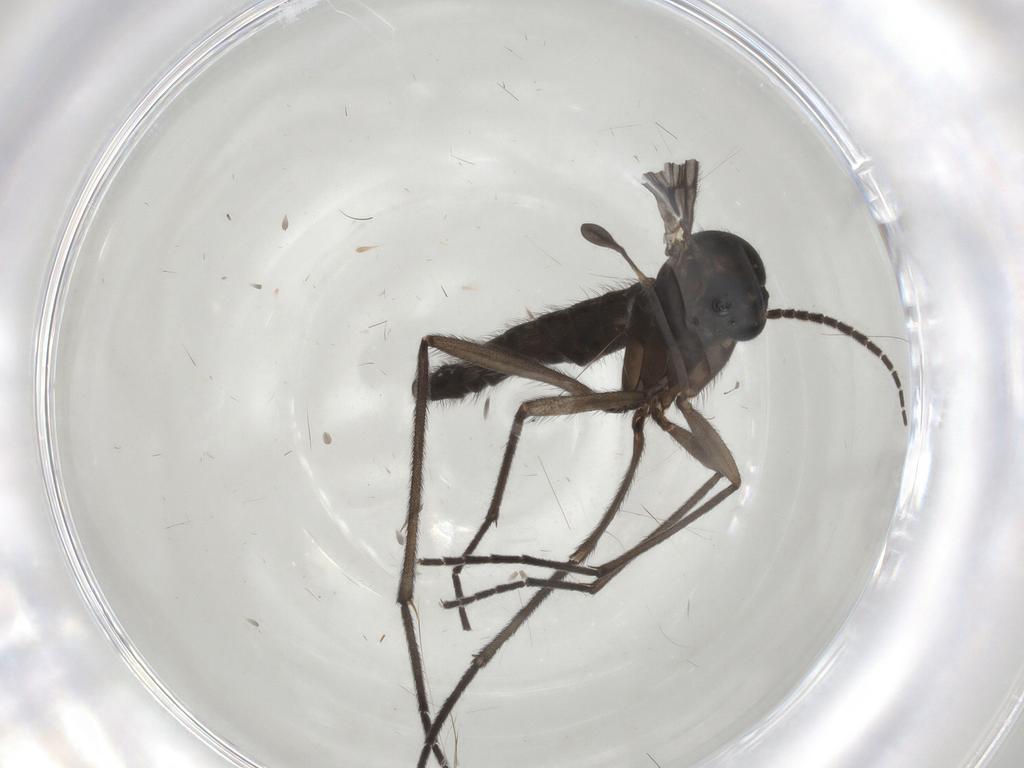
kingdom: Animalia
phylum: Arthropoda
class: Insecta
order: Diptera
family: Sciaridae
